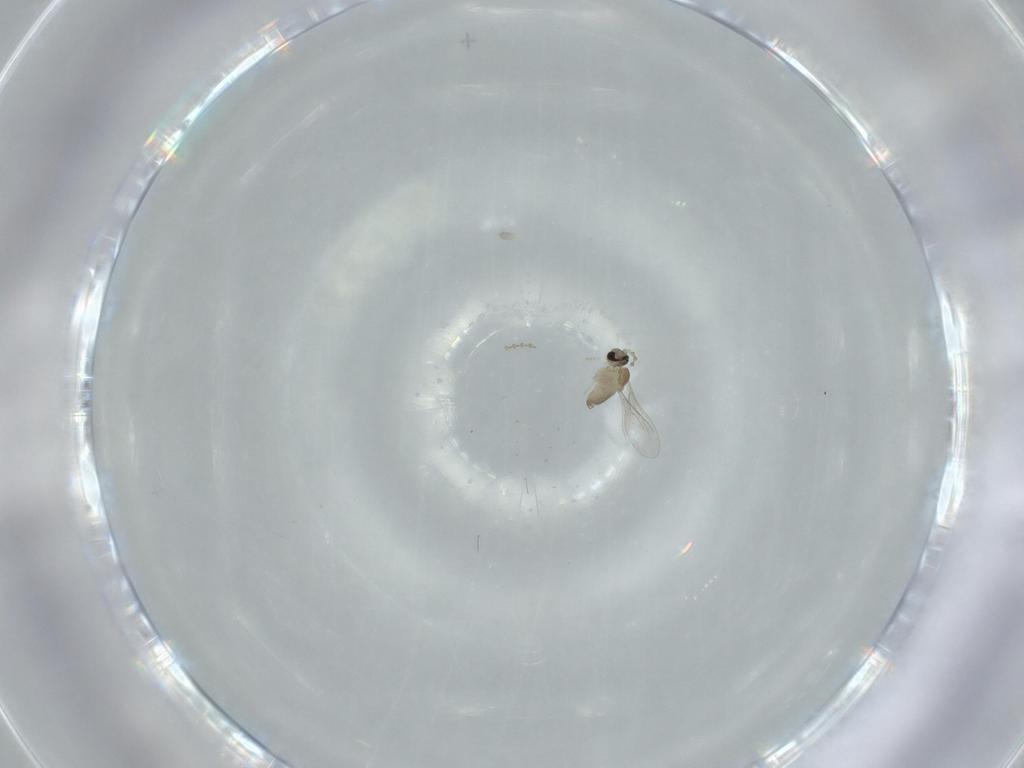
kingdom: Animalia
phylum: Arthropoda
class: Insecta
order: Diptera
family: Cecidomyiidae
